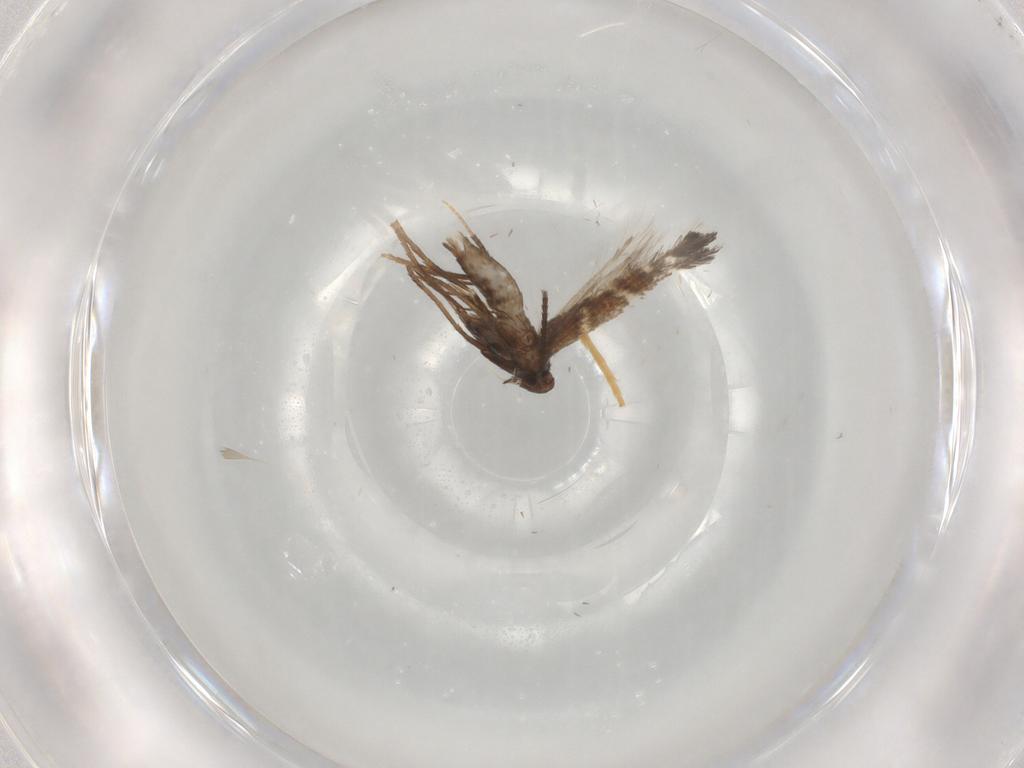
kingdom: Animalia
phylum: Arthropoda
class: Insecta
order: Lepidoptera
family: Gracillariidae
